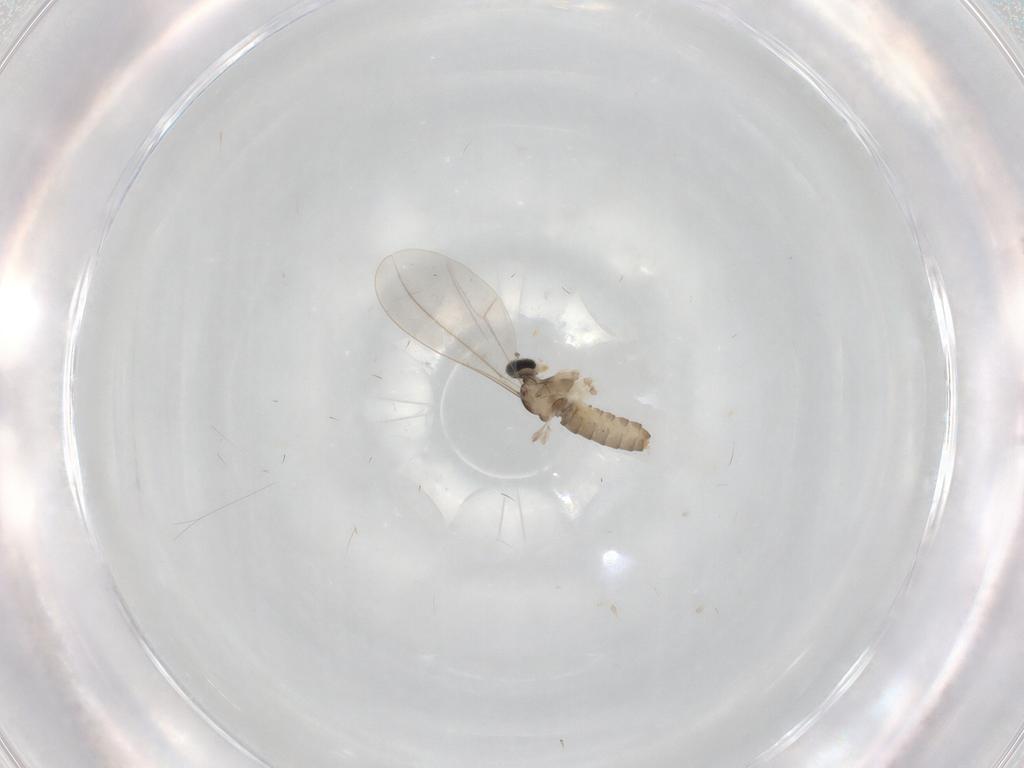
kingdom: Animalia
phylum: Arthropoda
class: Insecta
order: Diptera
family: Cecidomyiidae
